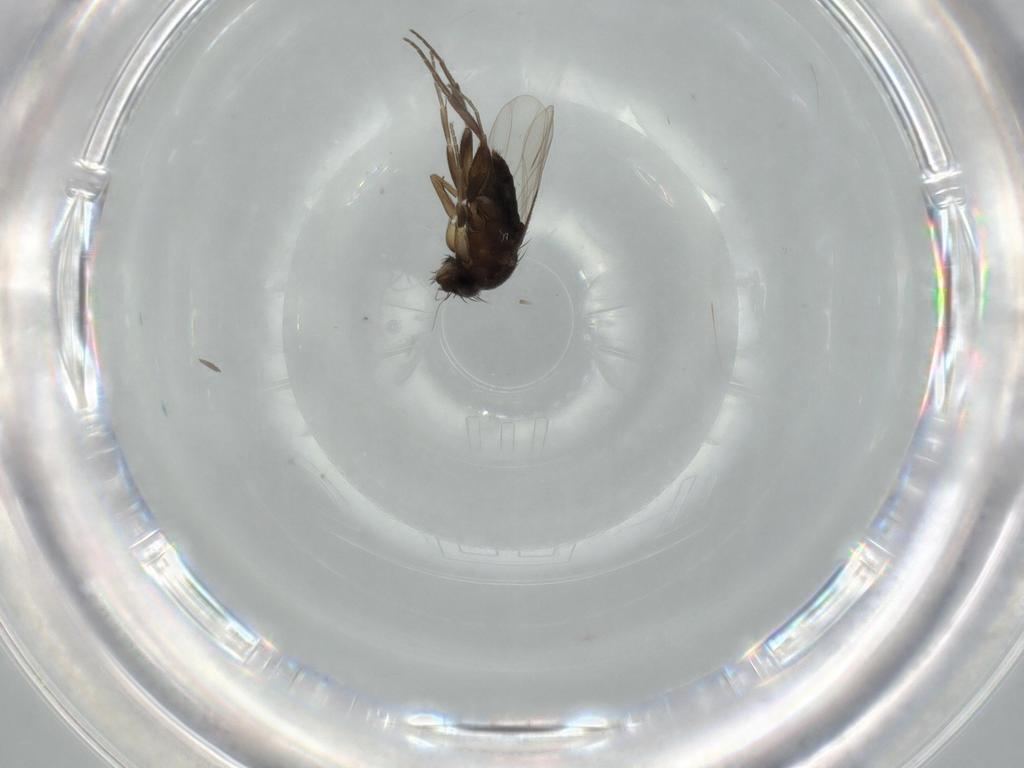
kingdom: Animalia
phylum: Arthropoda
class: Insecta
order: Diptera
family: Phoridae
